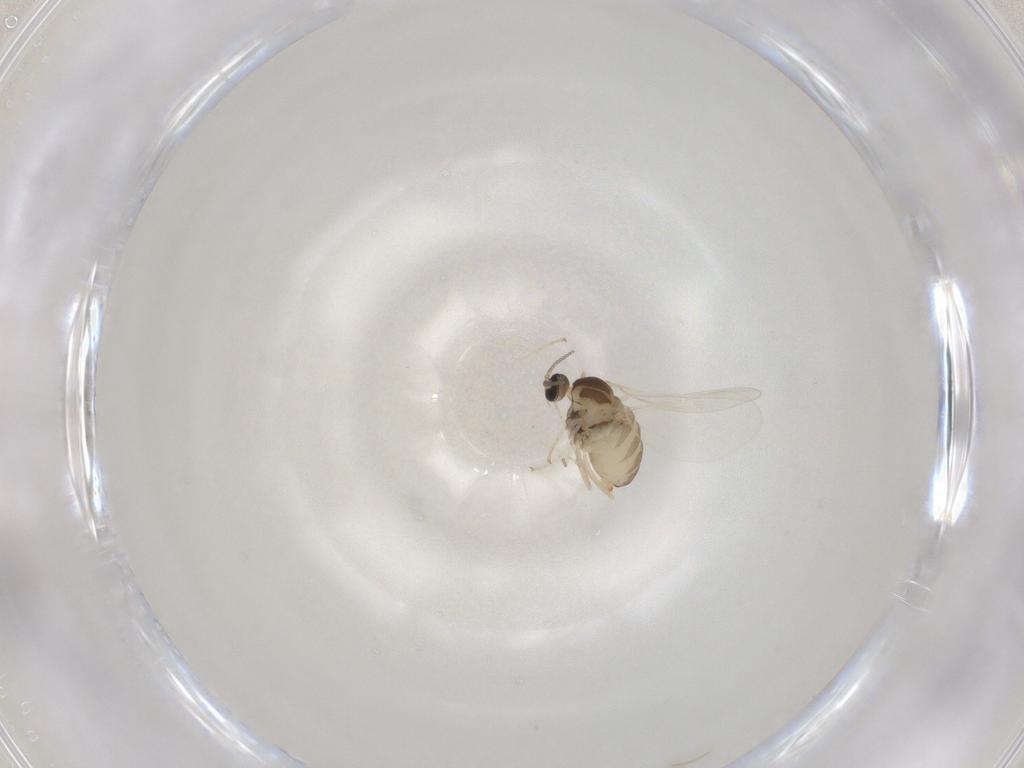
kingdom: Animalia
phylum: Arthropoda
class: Insecta
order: Diptera
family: Cecidomyiidae
